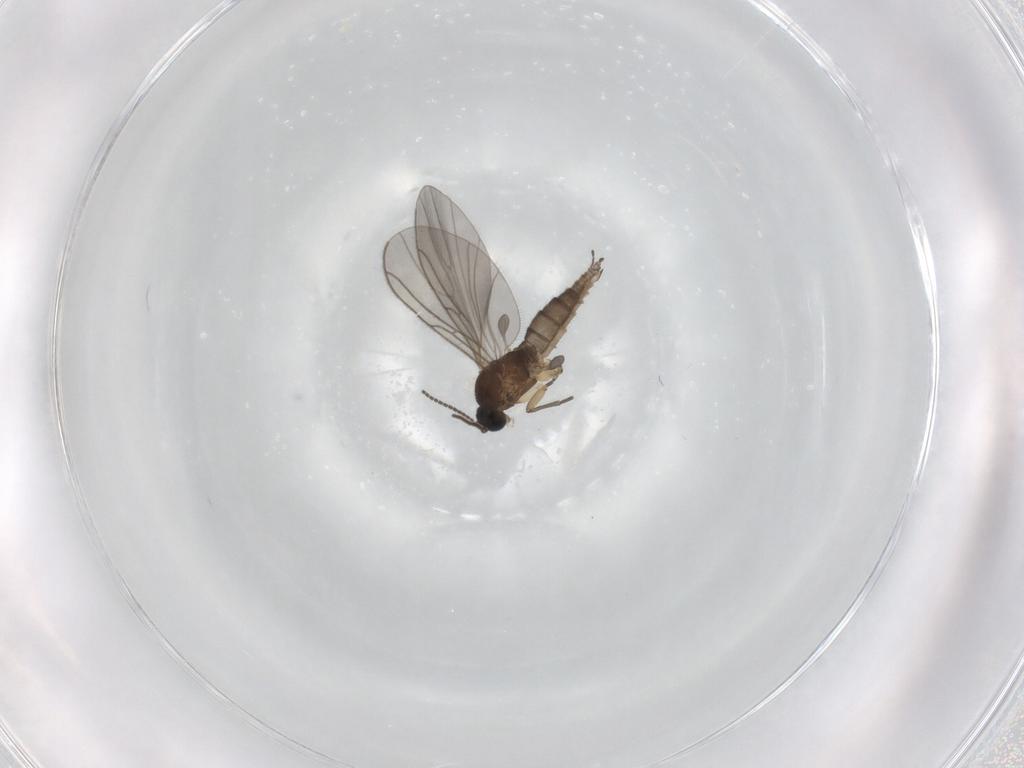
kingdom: Animalia
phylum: Arthropoda
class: Insecta
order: Diptera
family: Sciaridae
